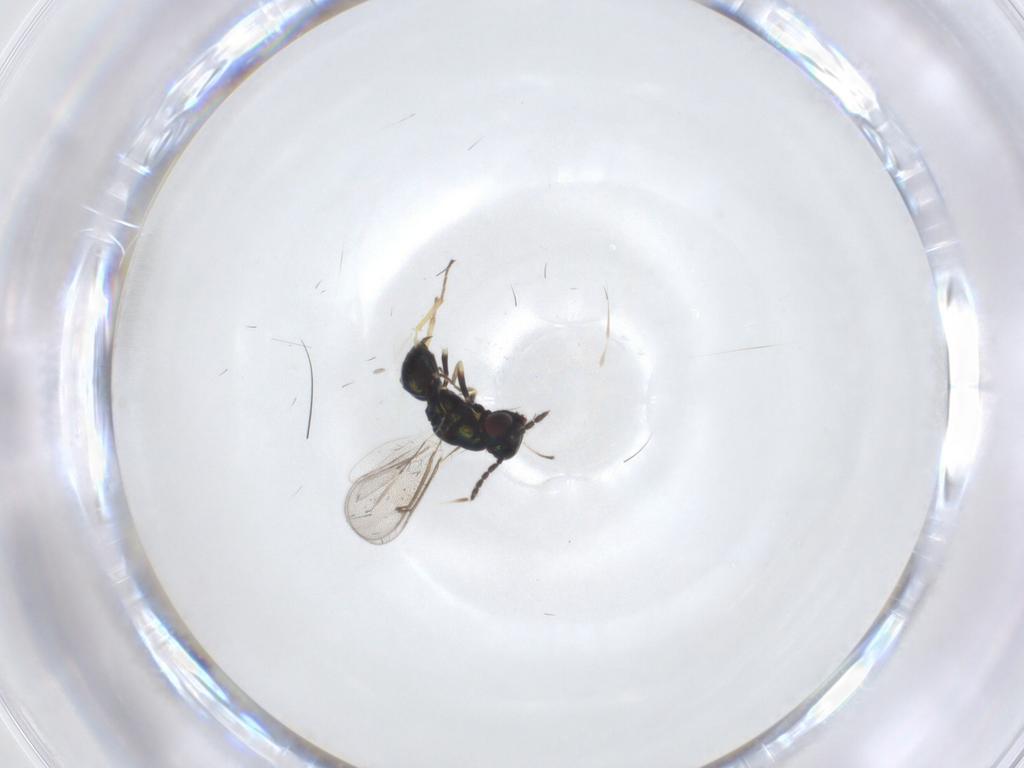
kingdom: Animalia
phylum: Arthropoda
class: Insecta
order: Hymenoptera
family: Eulophidae
